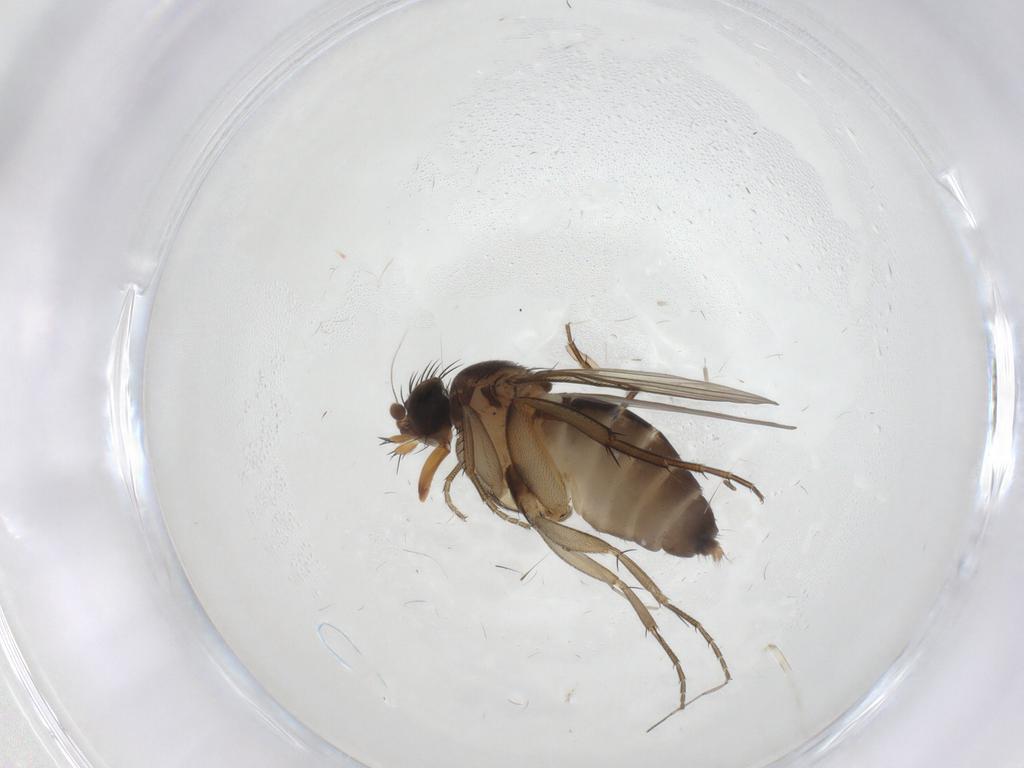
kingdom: Animalia
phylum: Arthropoda
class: Insecta
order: Diptera
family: Phoridae
